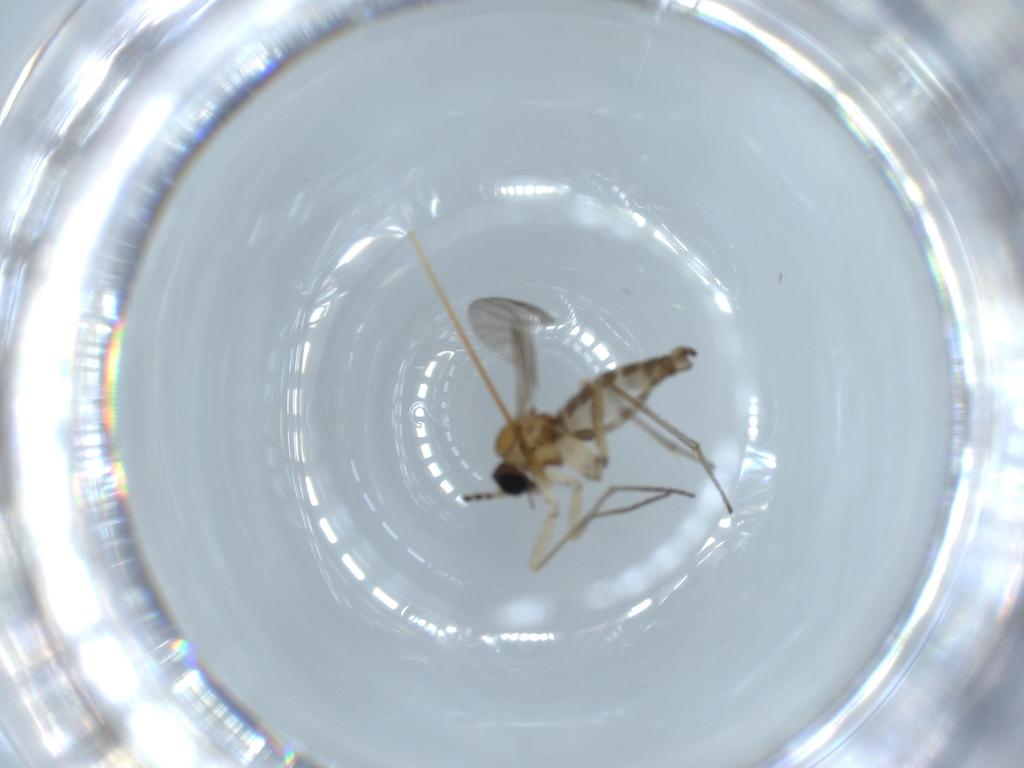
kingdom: Animalia
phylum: Arthropoda
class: Insecta
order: Diptera
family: Sciaridae
